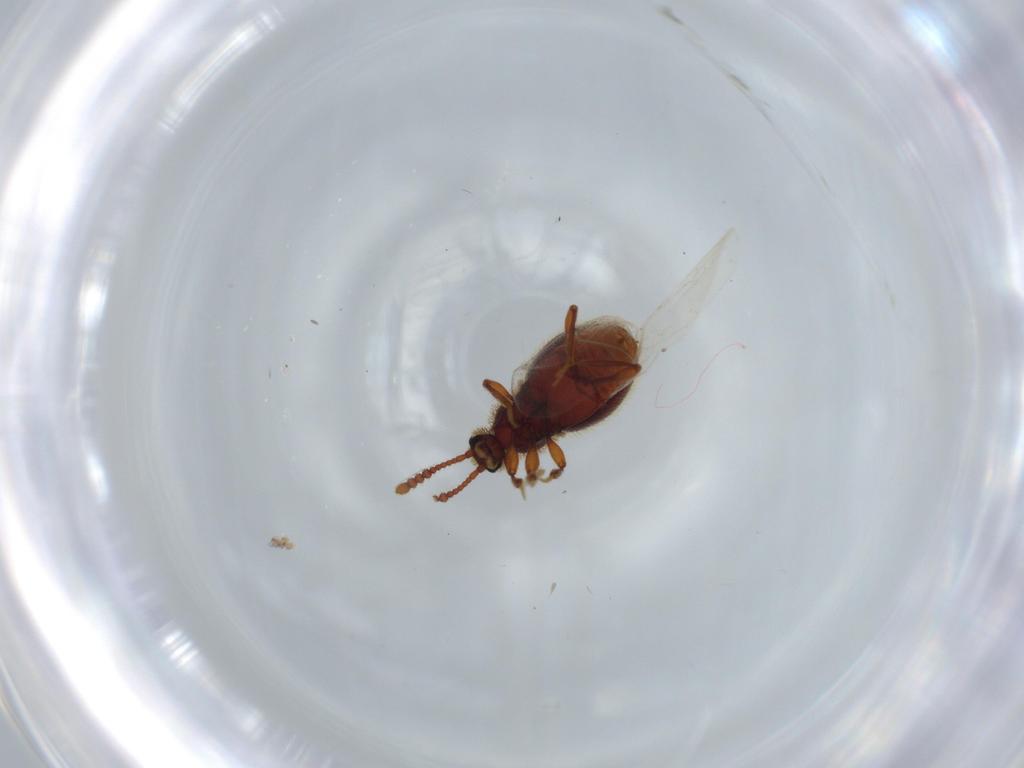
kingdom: Animalia
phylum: Arthropoda
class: Insecta
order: Coleoptera
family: Staphylinidae
